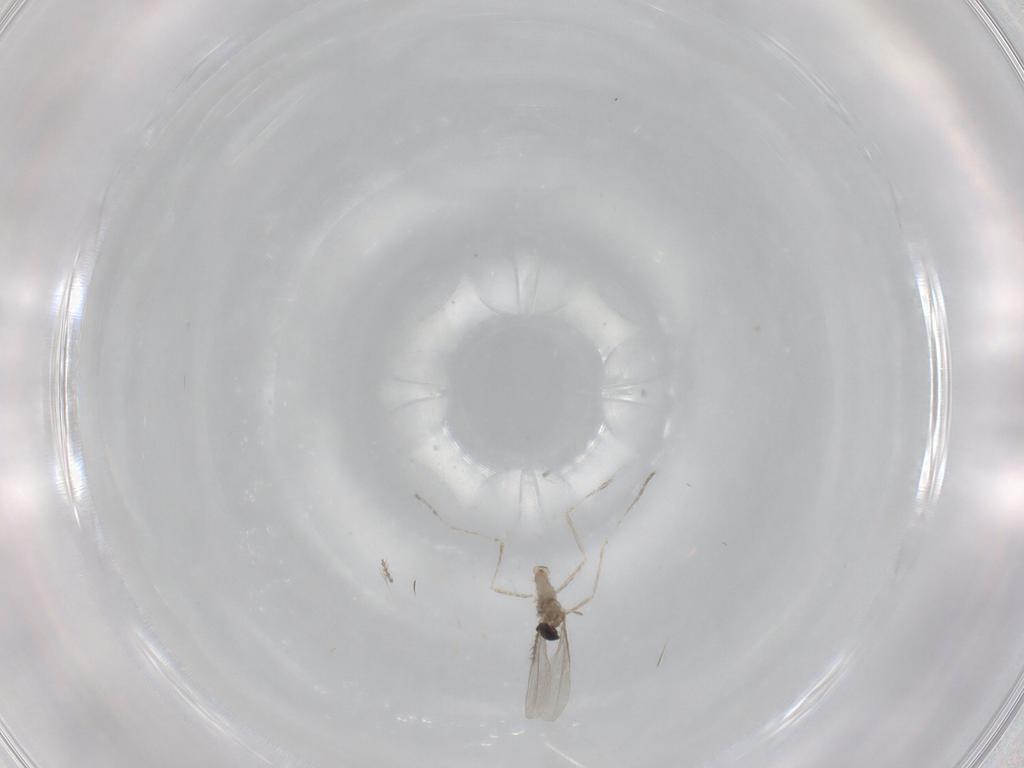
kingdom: Animalia
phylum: Arthropoda
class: Insecta
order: Diptera
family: Cecidomyiidae
